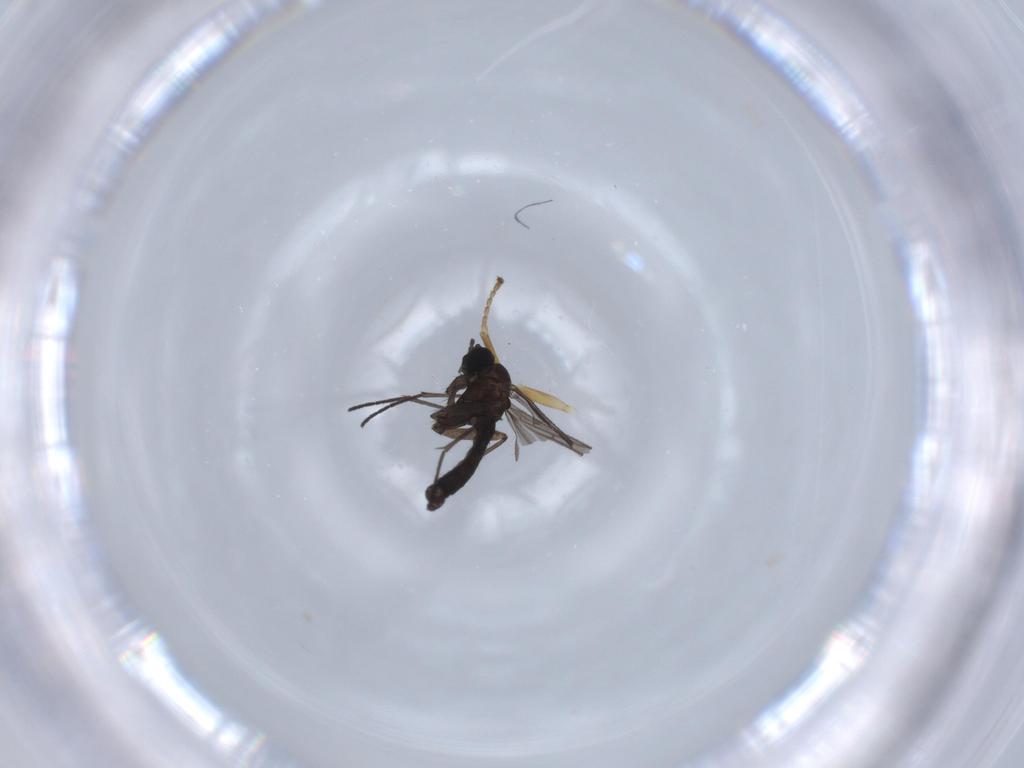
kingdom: Animalia
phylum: Arthropoda
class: Insecta
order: Diptera
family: Sciaridae
